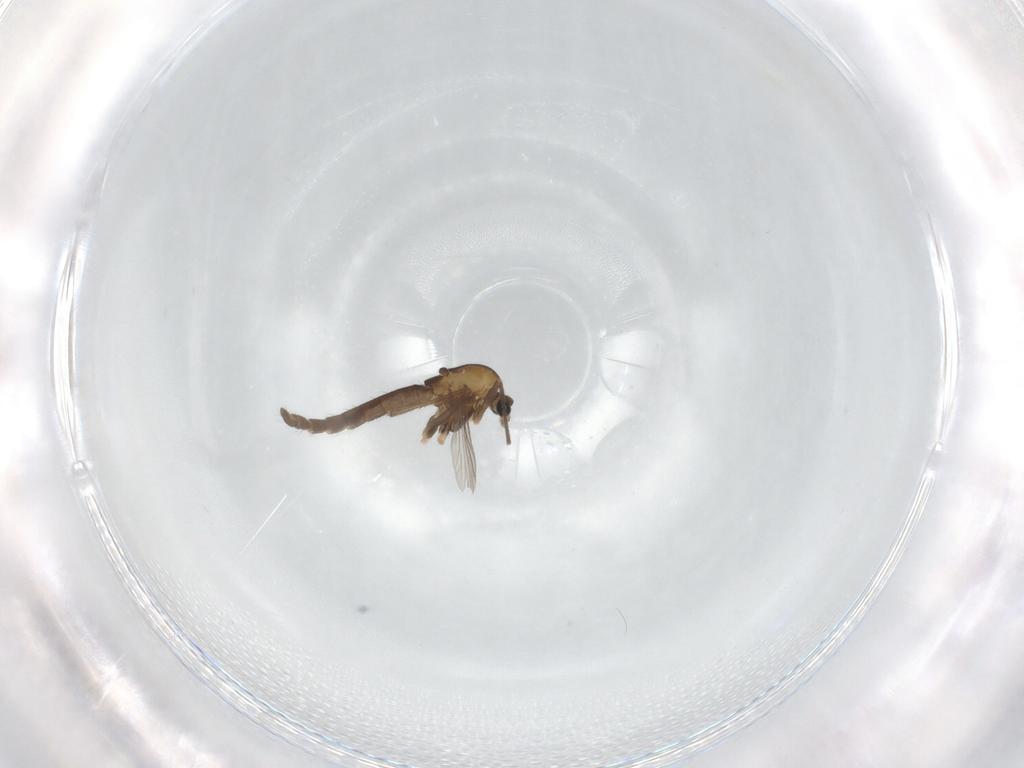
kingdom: Animalia
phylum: Arthropoda
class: Insecta
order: Diptera
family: Chironomidae
